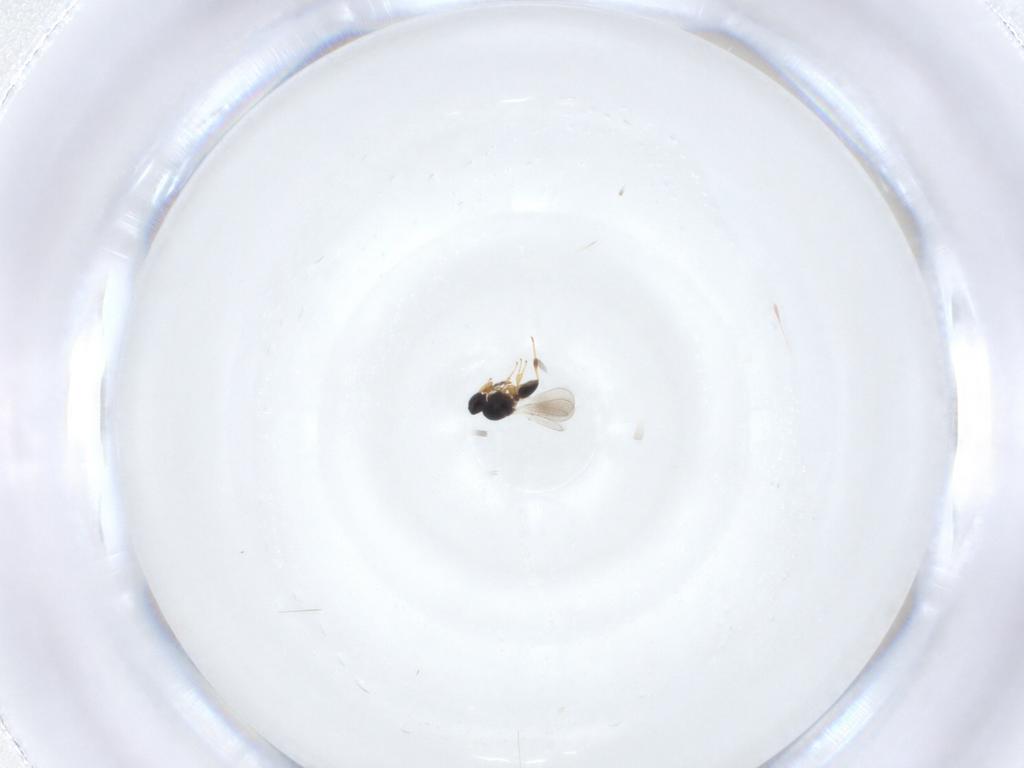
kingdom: Animalia
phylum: Arthropoda
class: Insecta
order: Hymenoptera
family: Platygastridae
